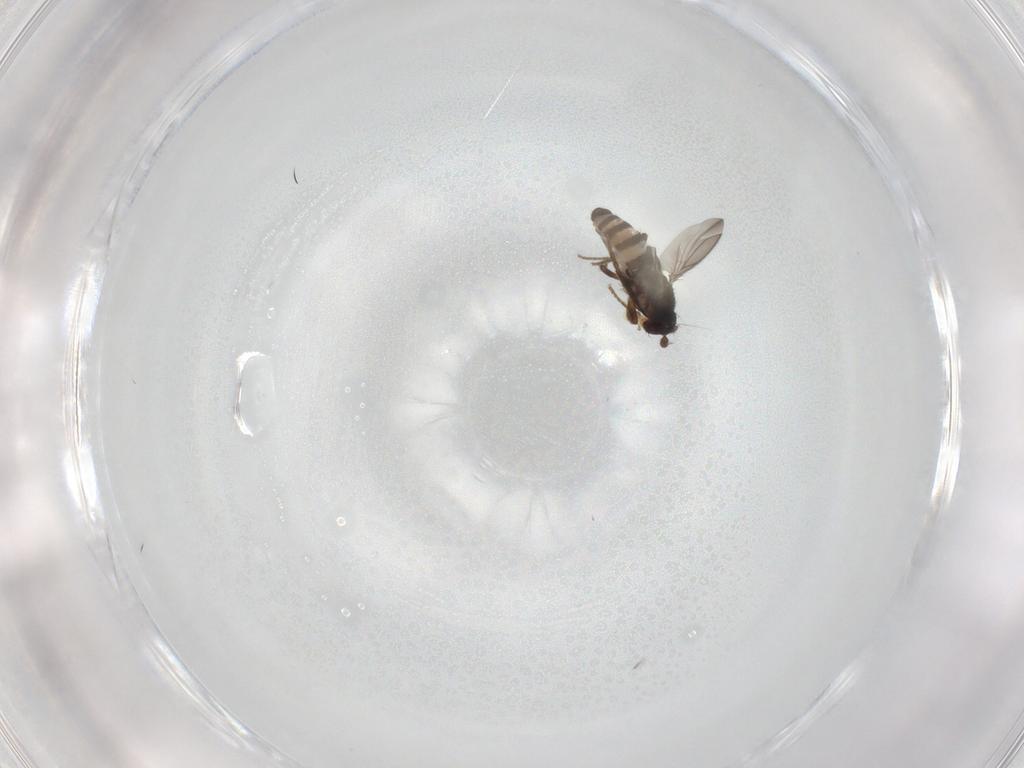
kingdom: Animalia
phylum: Arthropoda
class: Insecta
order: Diptera
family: Sphaeroceridae
